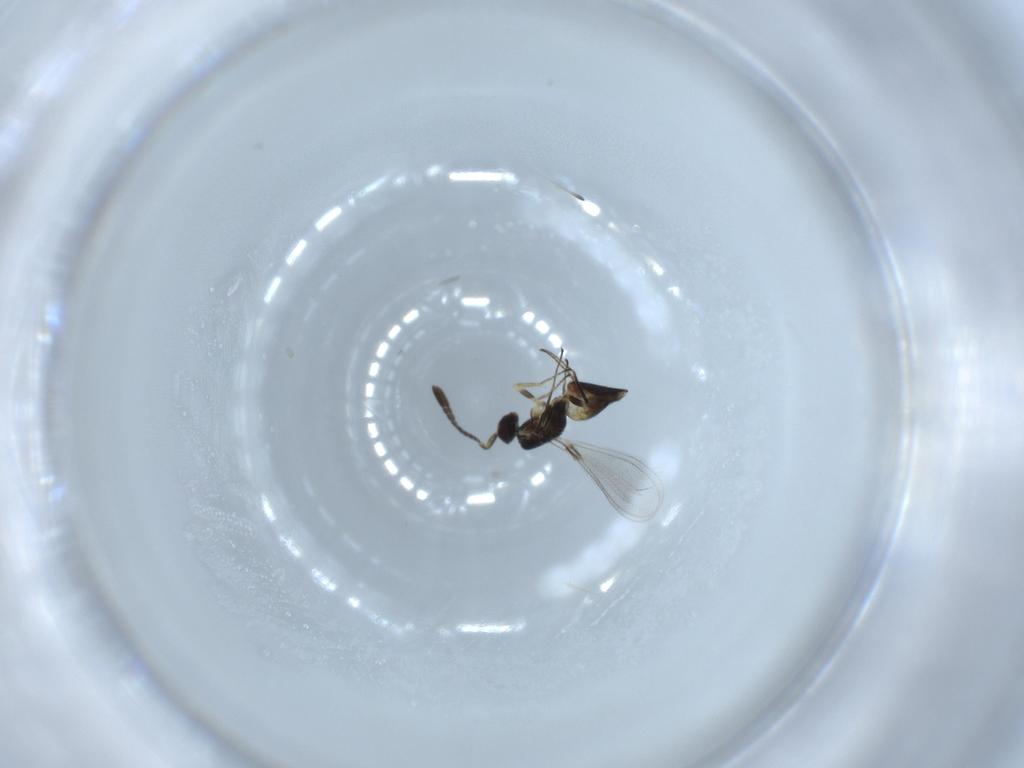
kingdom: Animalia
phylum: Arthropoda
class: Insecta
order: Hymenoptera
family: Mymaridae
